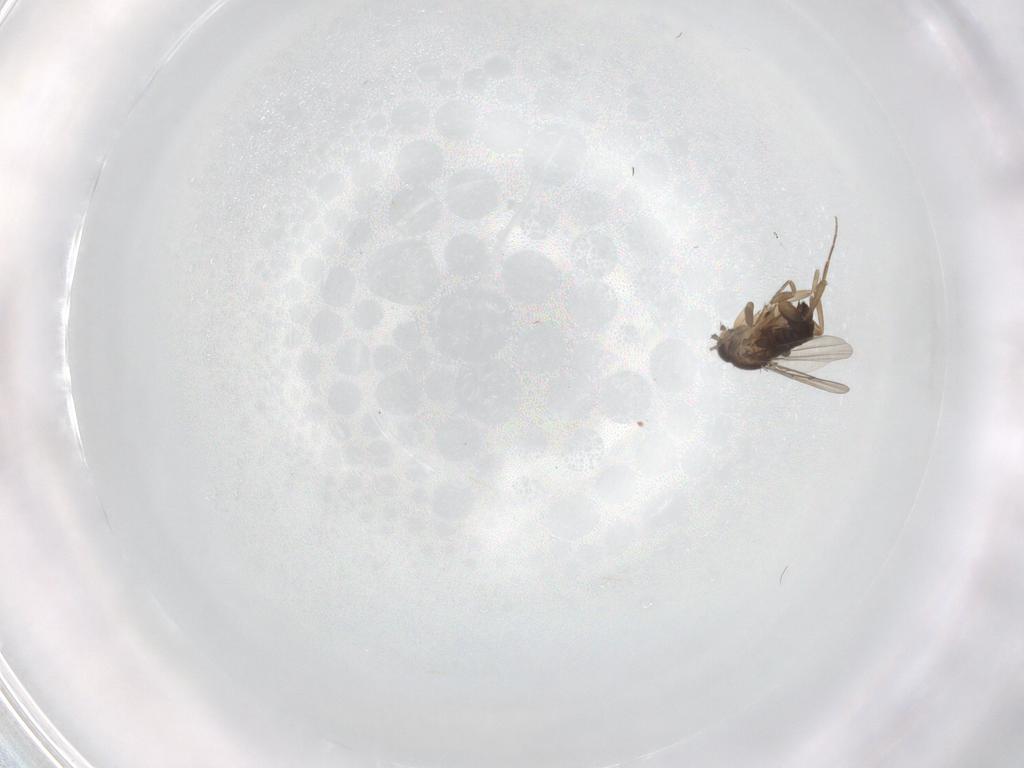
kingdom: Animalia
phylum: Arthropoda
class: Insecta
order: Diptera
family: Phoridae
